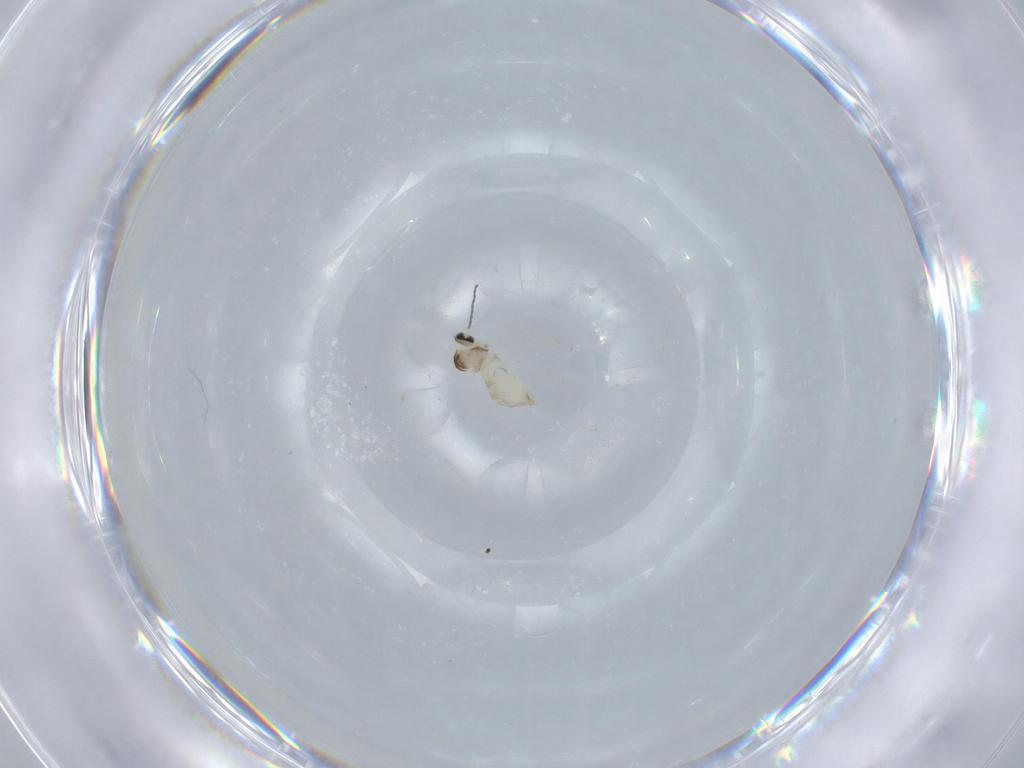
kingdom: Animalia
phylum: Arthropoda
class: Insecta
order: Diptera
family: Cecidomyiidae
